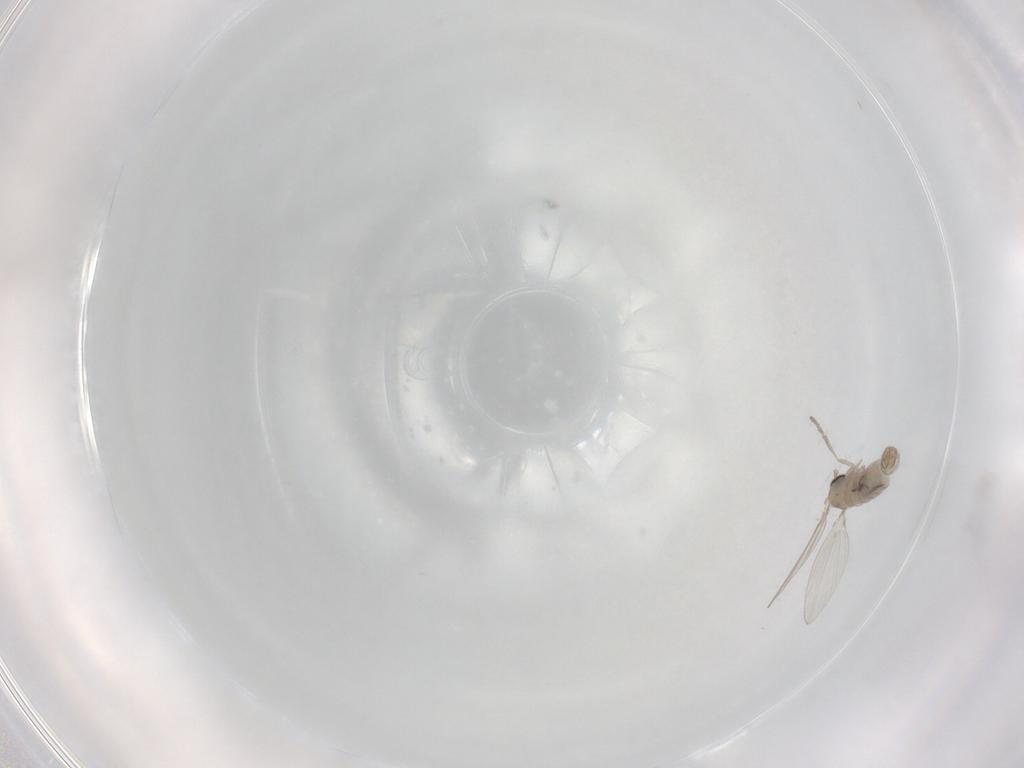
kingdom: Animalia
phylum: Arthropoda
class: Insecta
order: Diptera
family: Psychodidae
